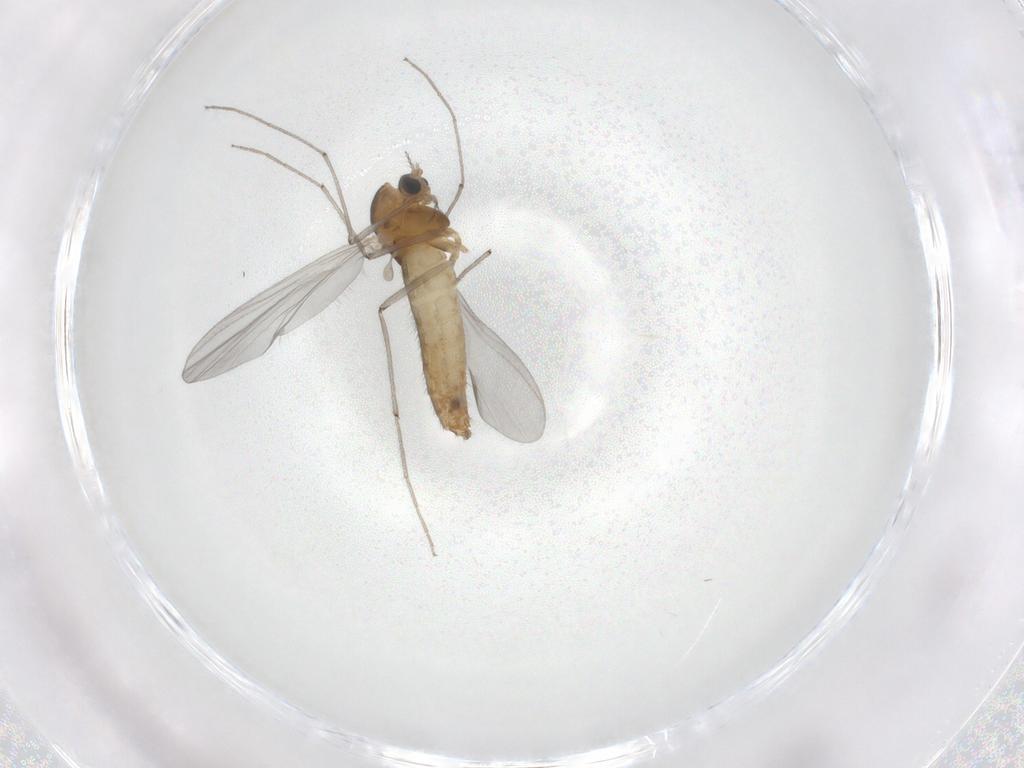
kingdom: Animalia
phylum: Arthropoda
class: Insecta
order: Diptera
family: Chironomidae
